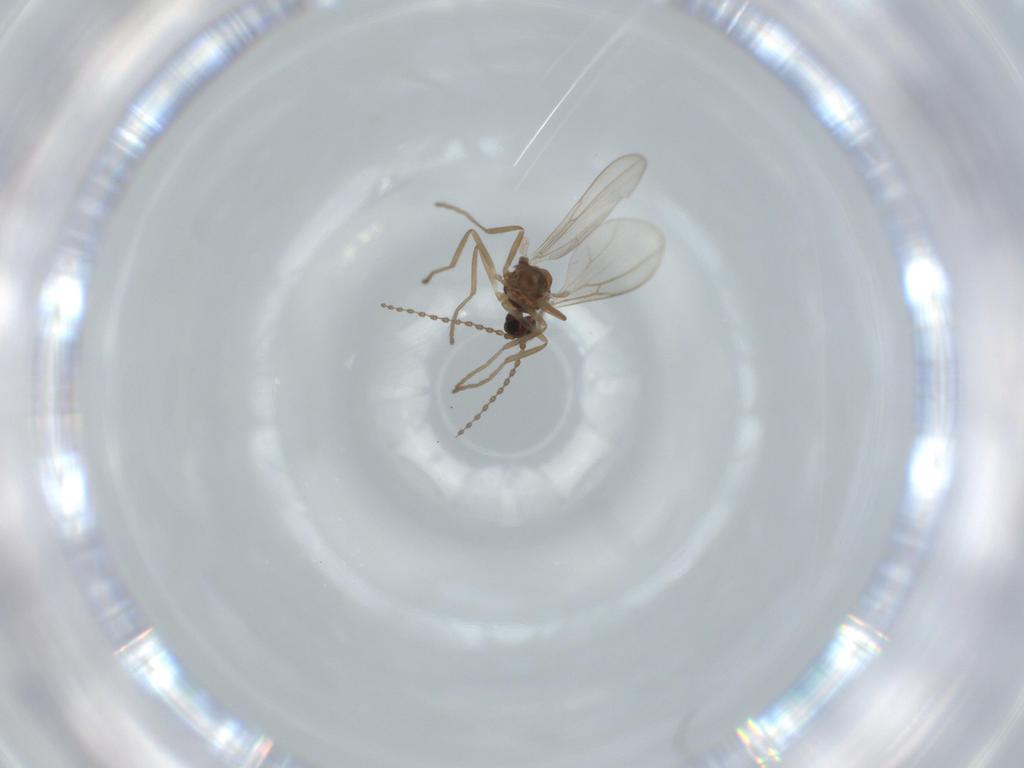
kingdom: Animalia
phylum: Arthropoda
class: Insecta
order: Diptera
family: Cecidomyiidae
